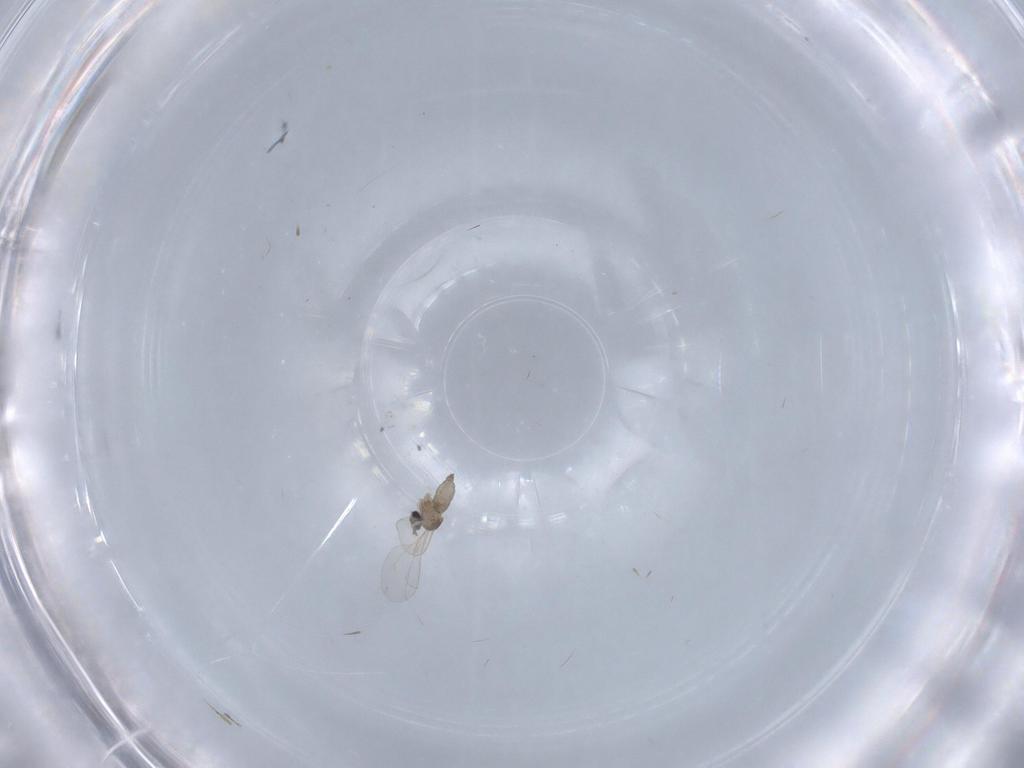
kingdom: Animalia
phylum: Arthropoda
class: Insecta
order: Diptera
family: Cecidomyiidae
